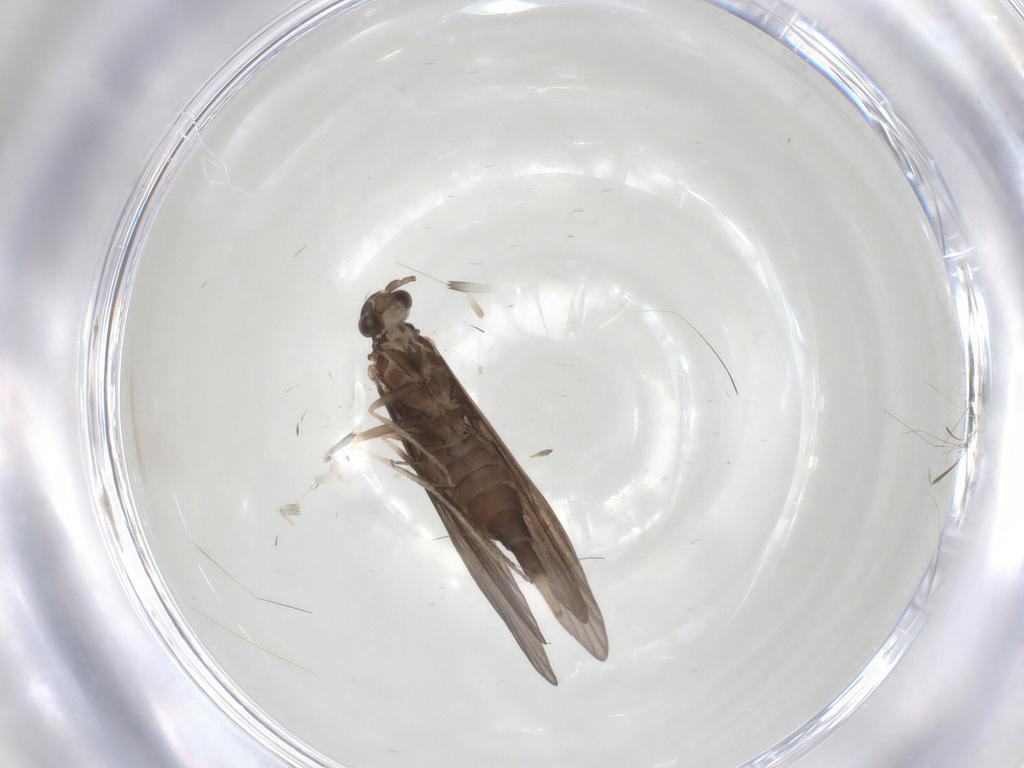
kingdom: Animalia
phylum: Arthropoda
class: Insecta
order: Trichoptera
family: Xiphocentronidae
